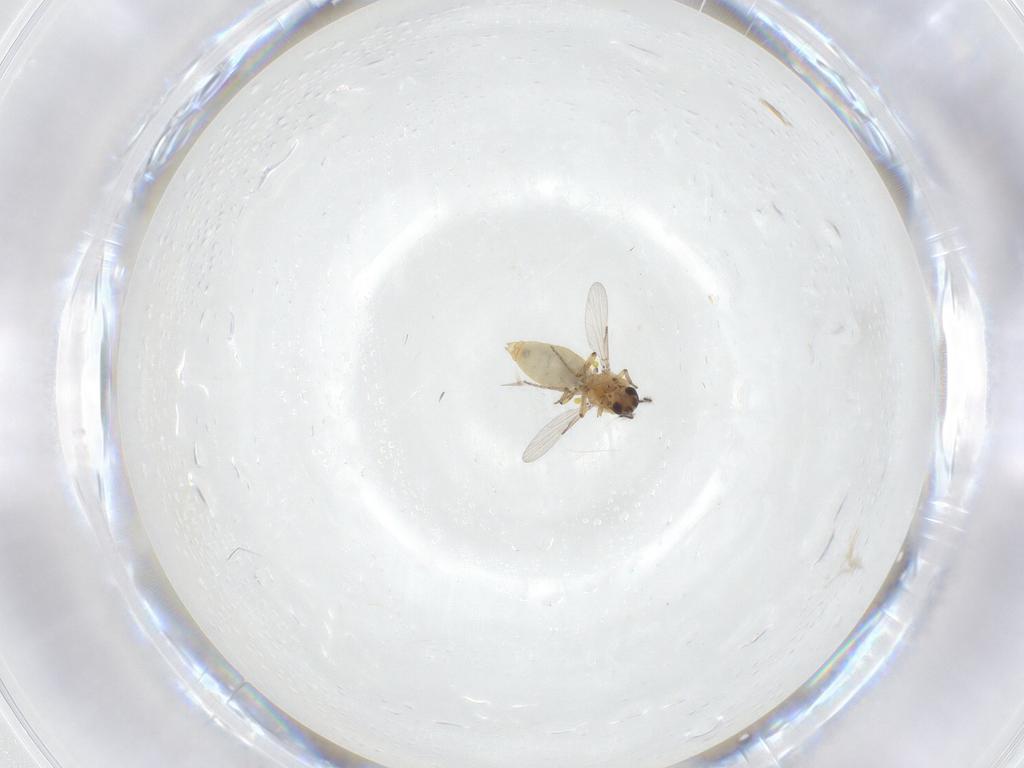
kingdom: Animalia
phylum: Arthropoda
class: Insecta
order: Diptera
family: Ceratopogonidae
